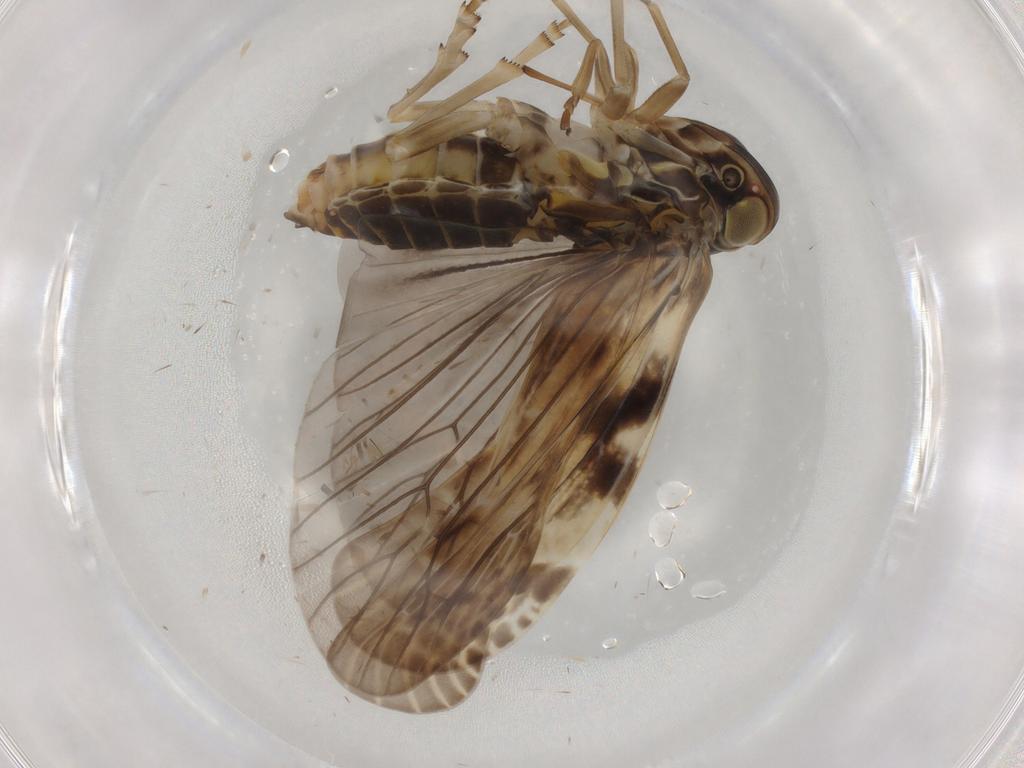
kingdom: Animalia
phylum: Arthropoda
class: Insecta
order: Hemiptera
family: Achilidae
